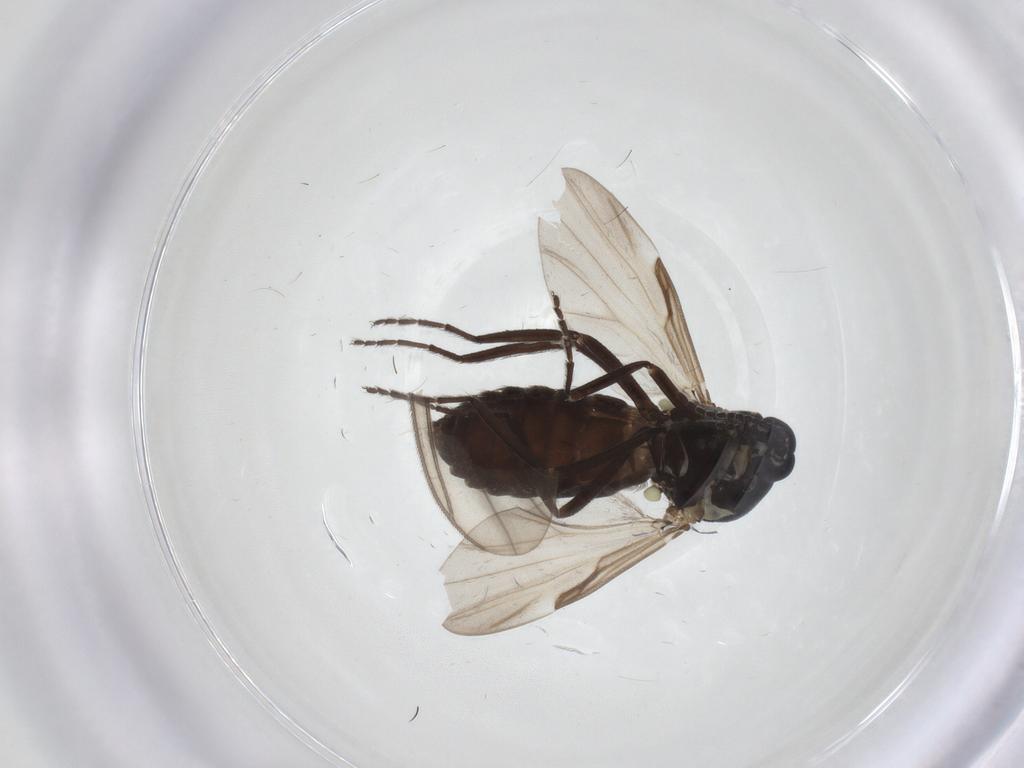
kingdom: Animalia
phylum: Arthropoda
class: Insecta
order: Diptera
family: Ceratopogonidae
